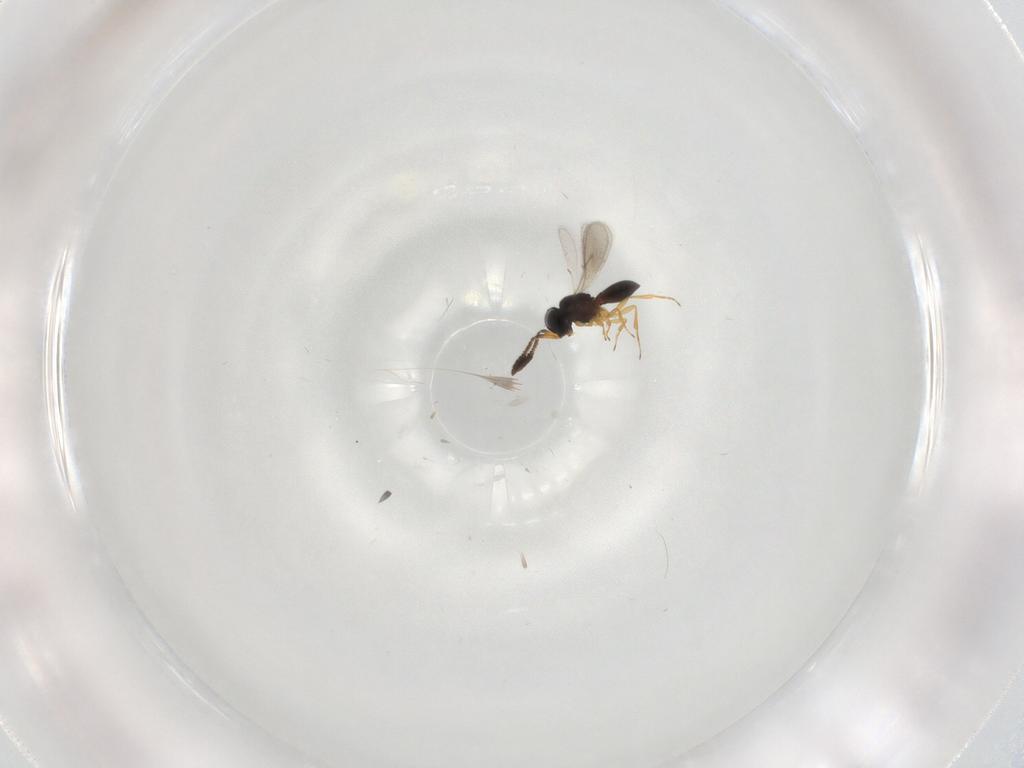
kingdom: Animalia
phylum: Arthropoda
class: Insecta
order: Hymenoptera
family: Scelionidae
